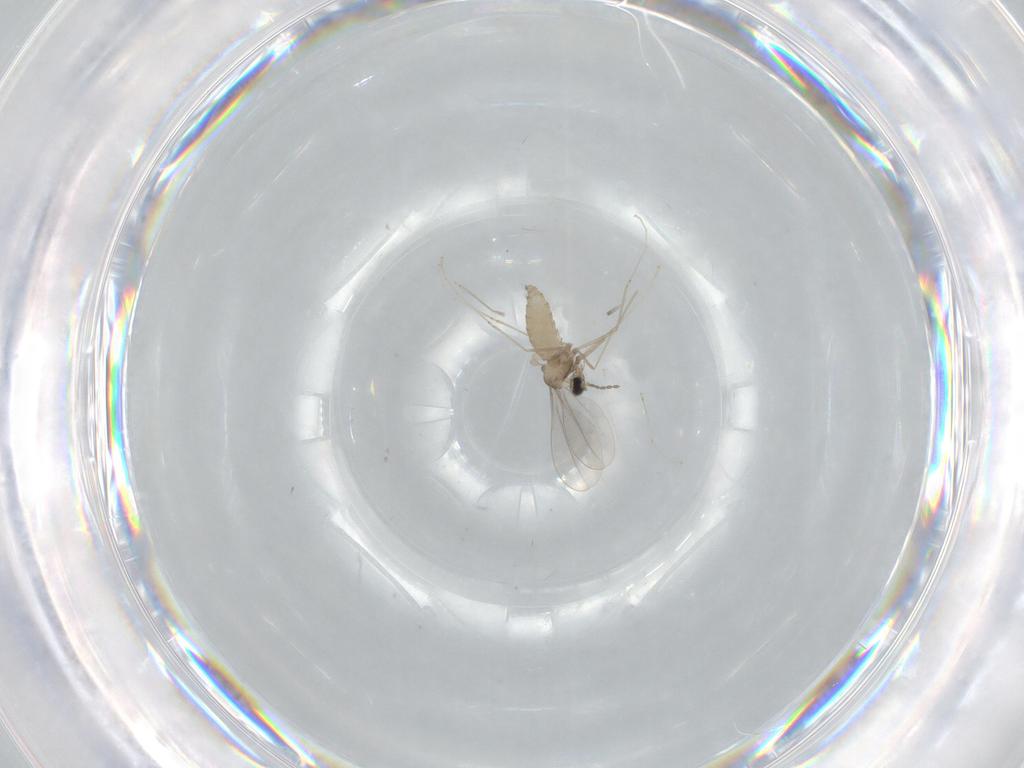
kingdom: Animalia
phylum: Arthropoda
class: Insecta
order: Diptera
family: Cecidomyiidae
